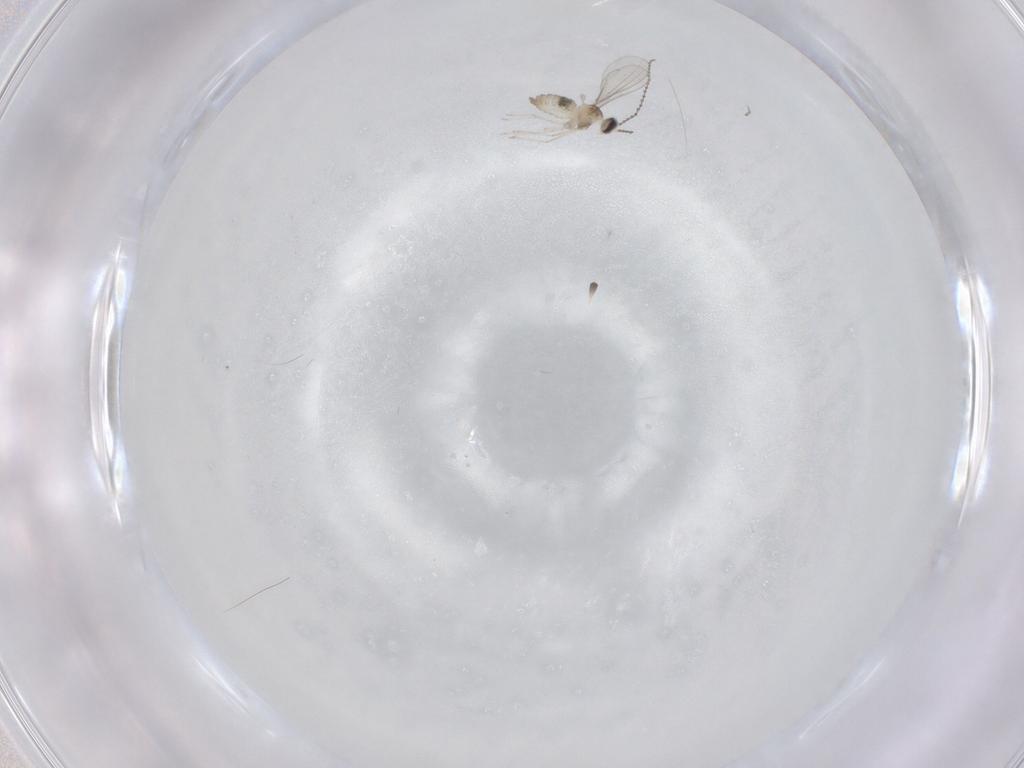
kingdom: Animalia
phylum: Arthropoda
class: Insecta
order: Diptera
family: Cecidomyiidae
